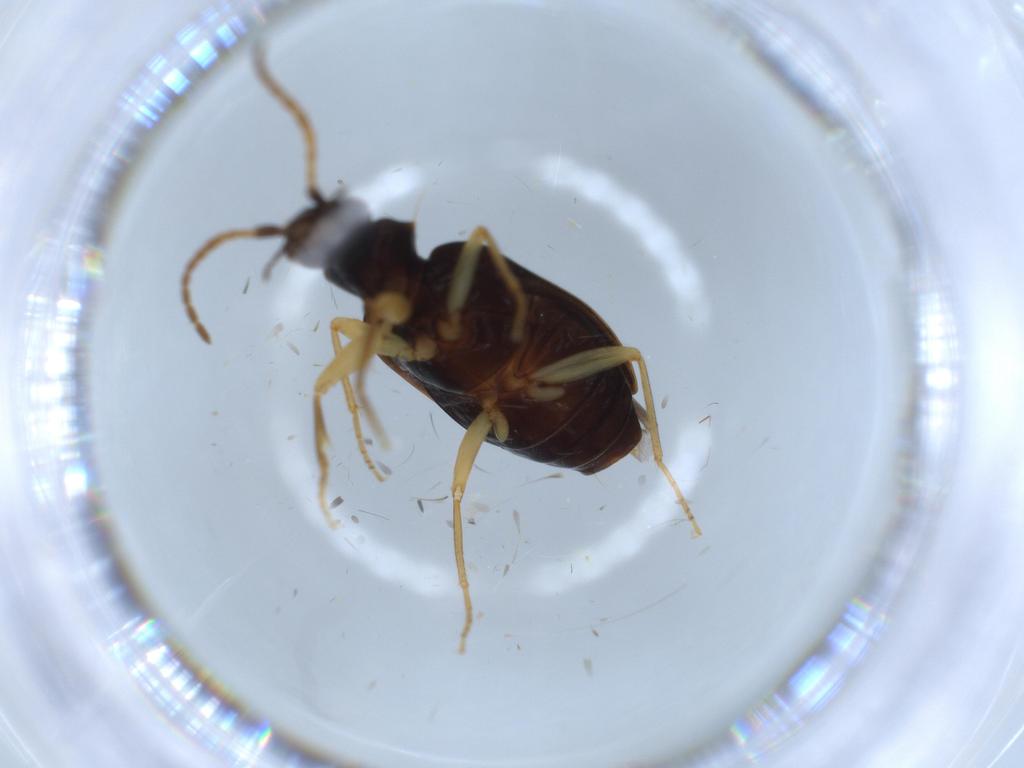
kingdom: Animalia
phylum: Arthropoda
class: Insecta
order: Coleoptera
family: Carabidae
